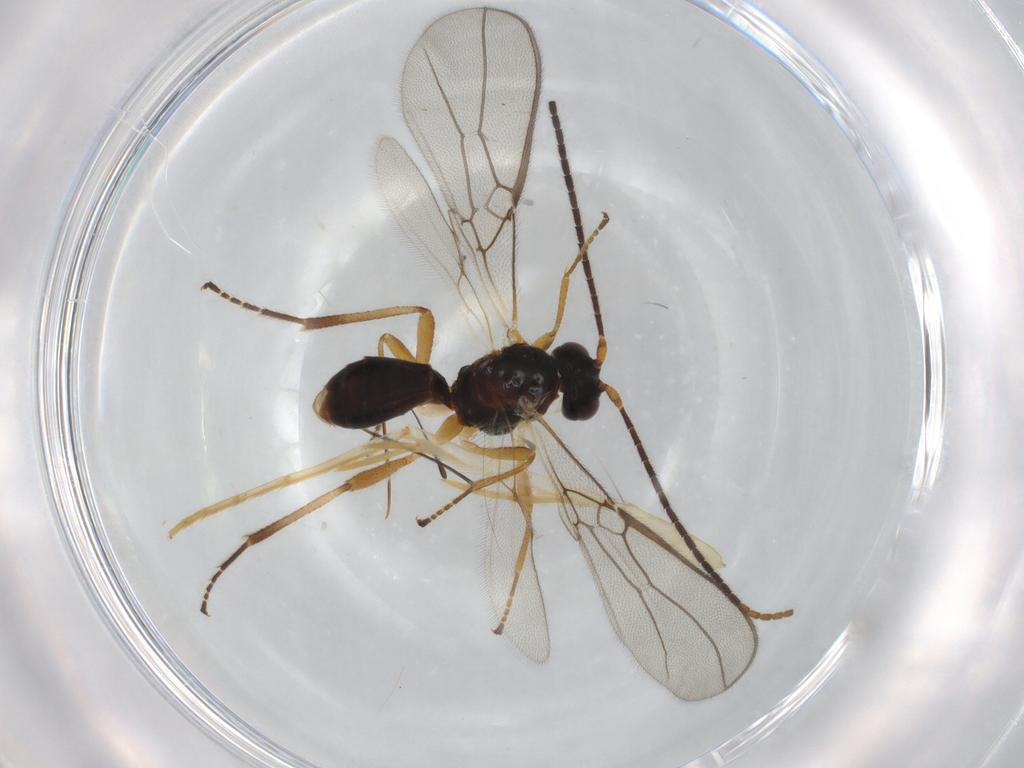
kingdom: Animalia
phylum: Arthropoda
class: Insecta
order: Hymenoptera
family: Braconidae
